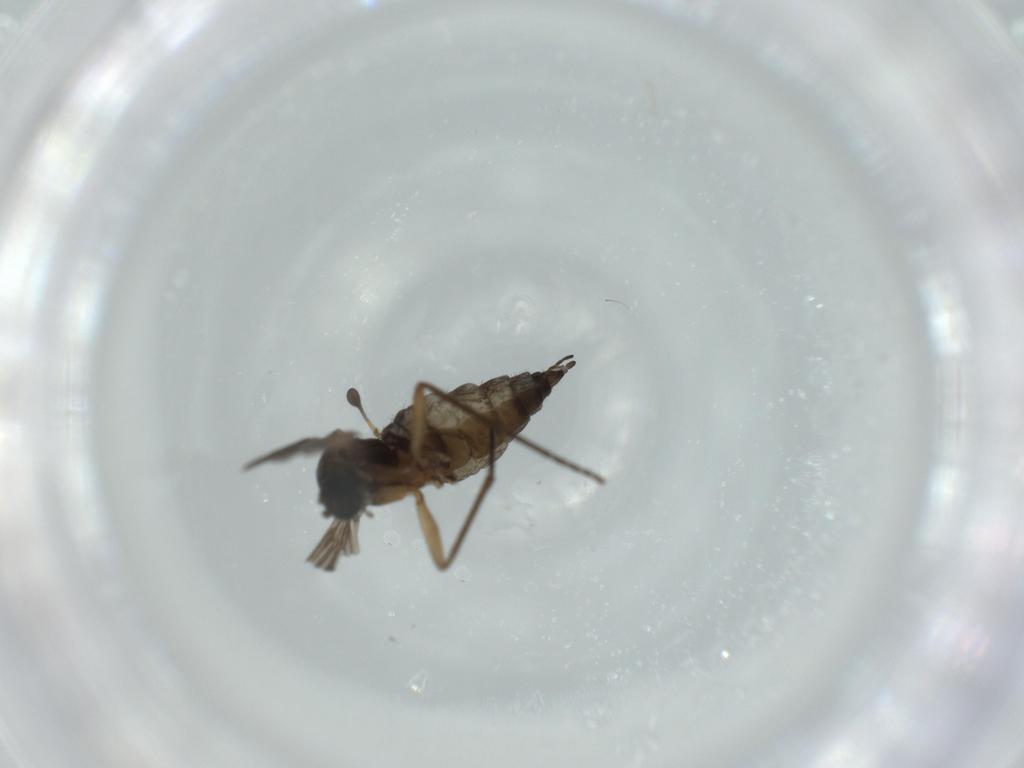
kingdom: Animalia
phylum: Arthropoda
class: Insecta
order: Diptera
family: Sciaridae
